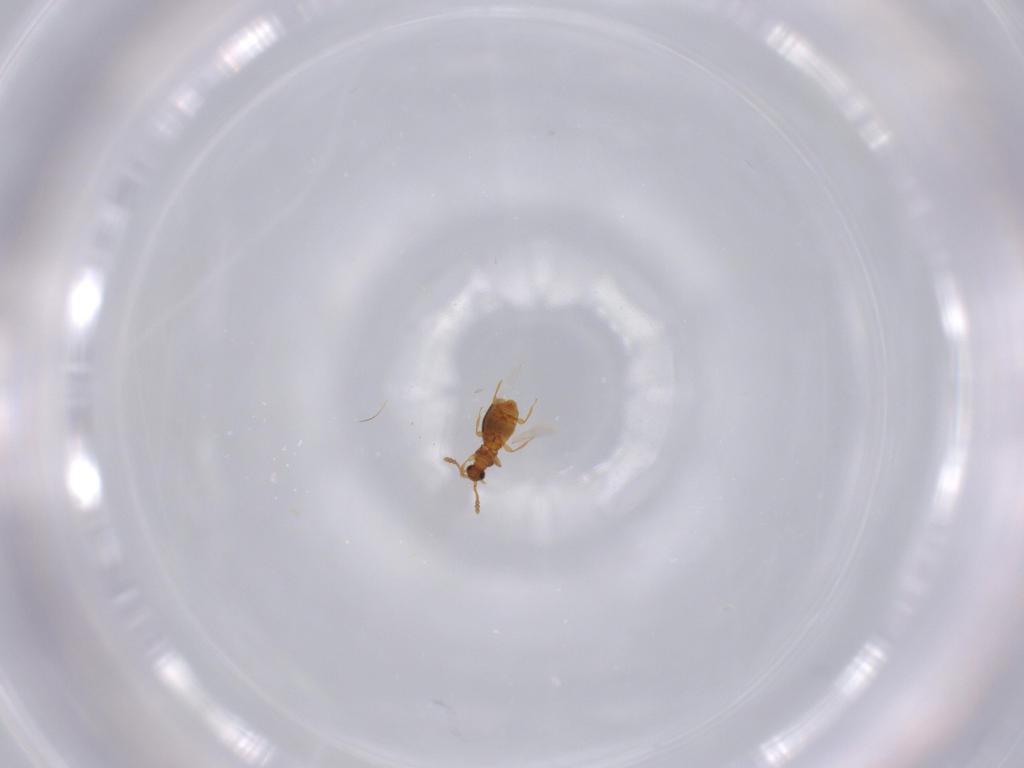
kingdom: Animalia
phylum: Arthropoda
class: Insecta
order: Coleoptera
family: Staphylinidae
